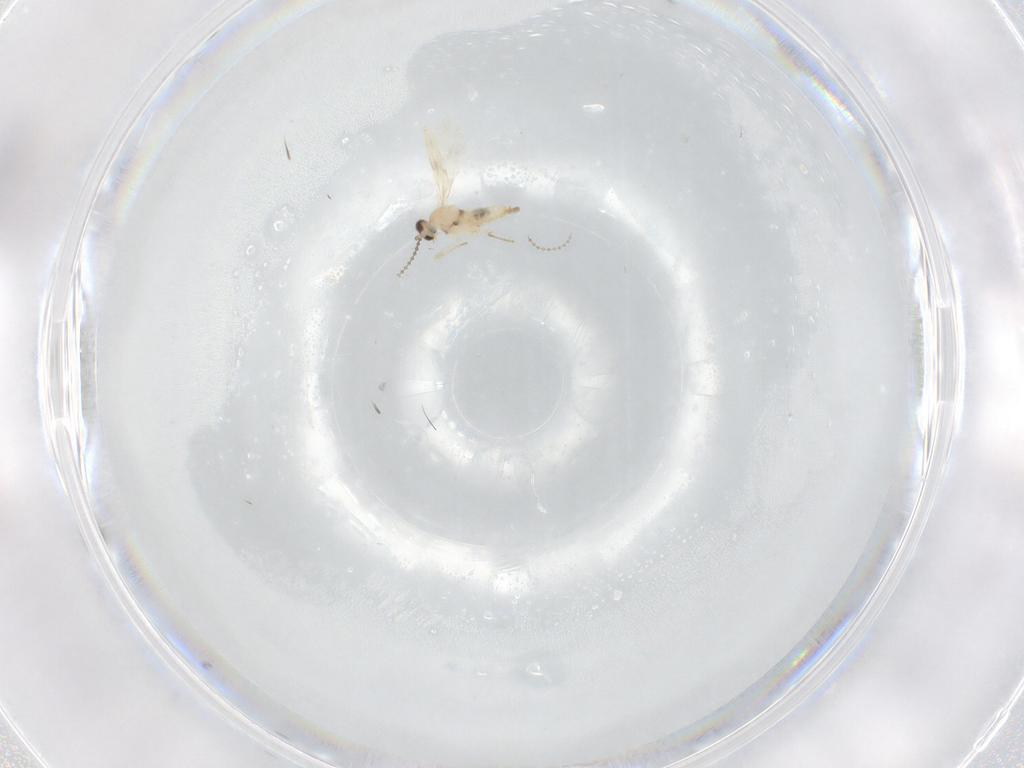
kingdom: Animalia
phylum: Arthropoda
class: Insecta
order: Diptera
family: Cecidomyiidae
